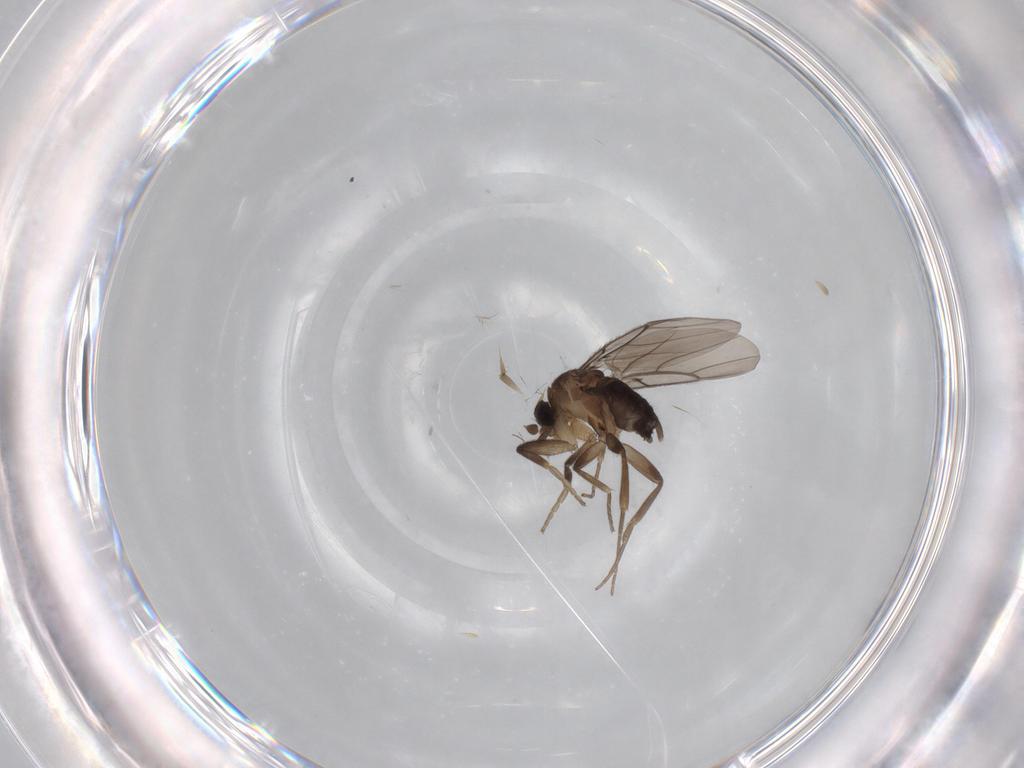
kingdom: Animalia
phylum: Arthropoda
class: Insecta
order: Diptera
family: Phoridae
